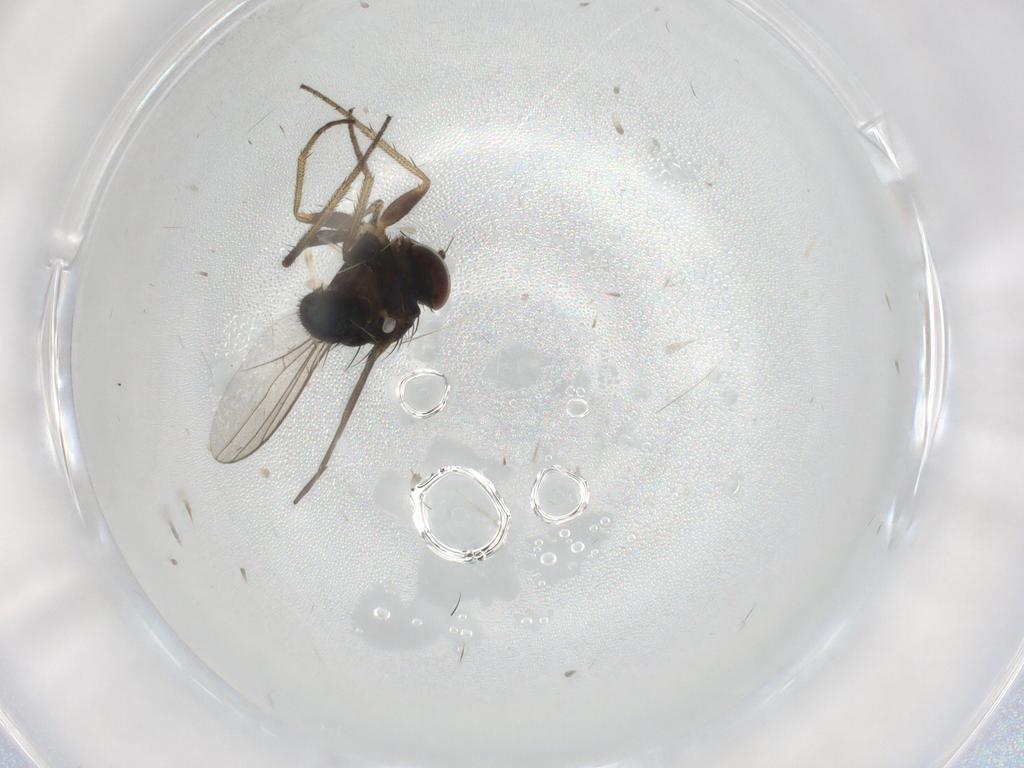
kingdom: Animalia
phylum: Arthropoda
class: Insecta
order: Diptera
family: Dolichopodidae
